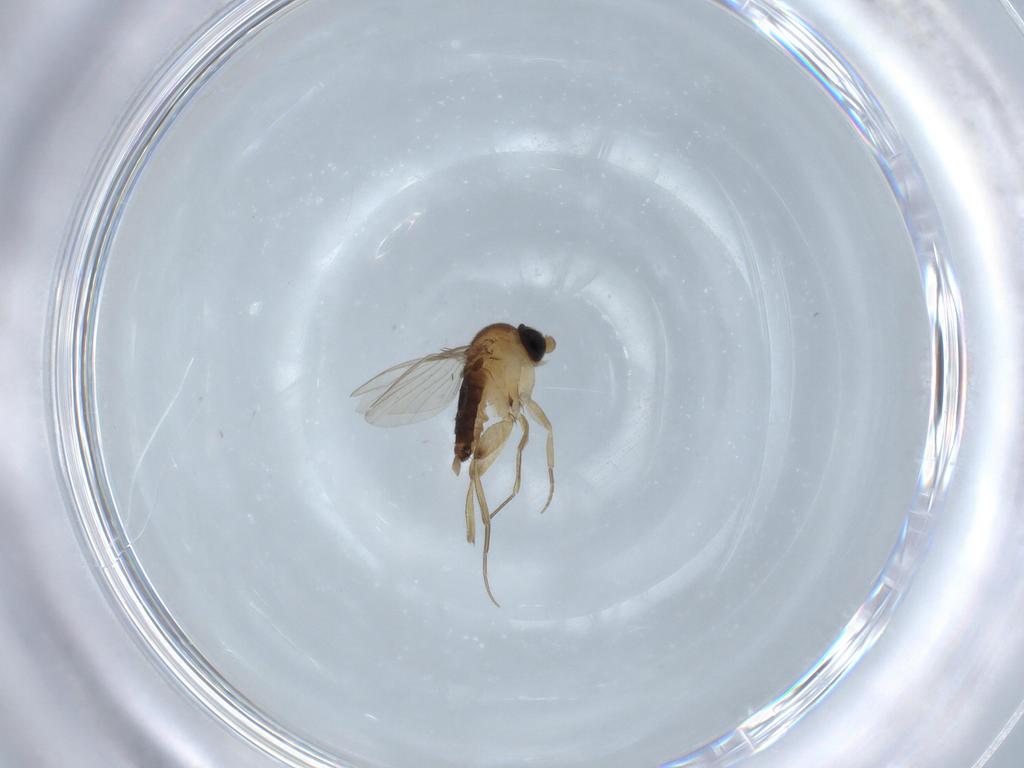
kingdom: Animalia
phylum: Arthropoda
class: Insecta
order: Diptera
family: Phoridae
